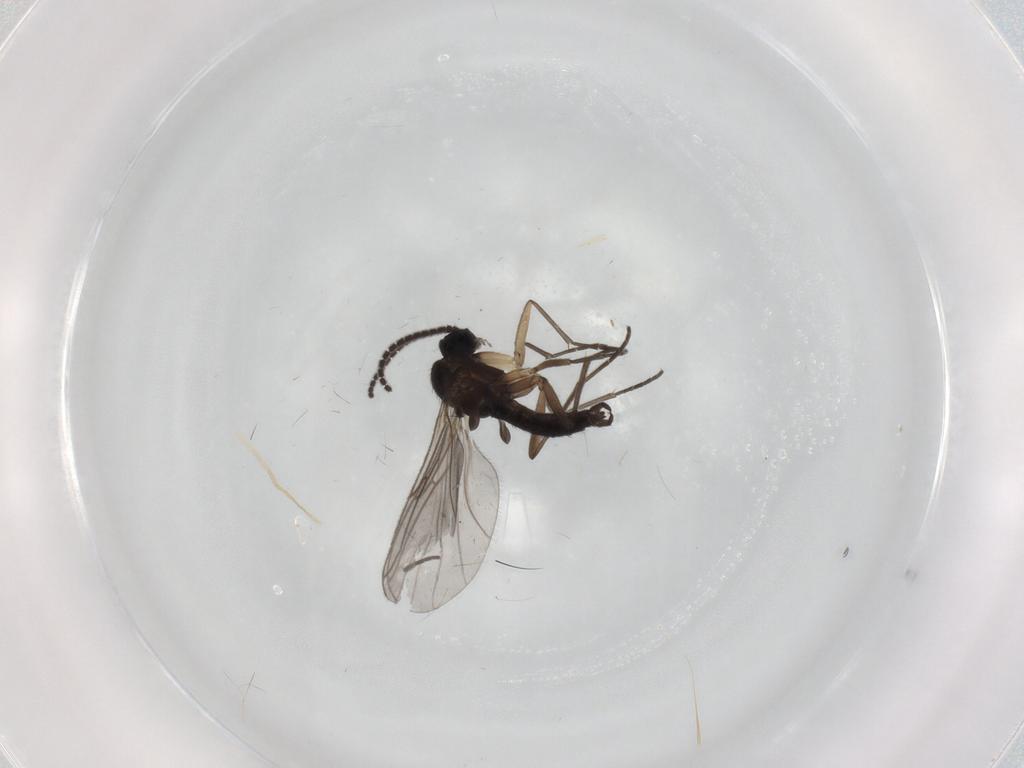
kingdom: Animalia
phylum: Arthropoda
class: Insecta
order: Diptera
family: Sciaridae
